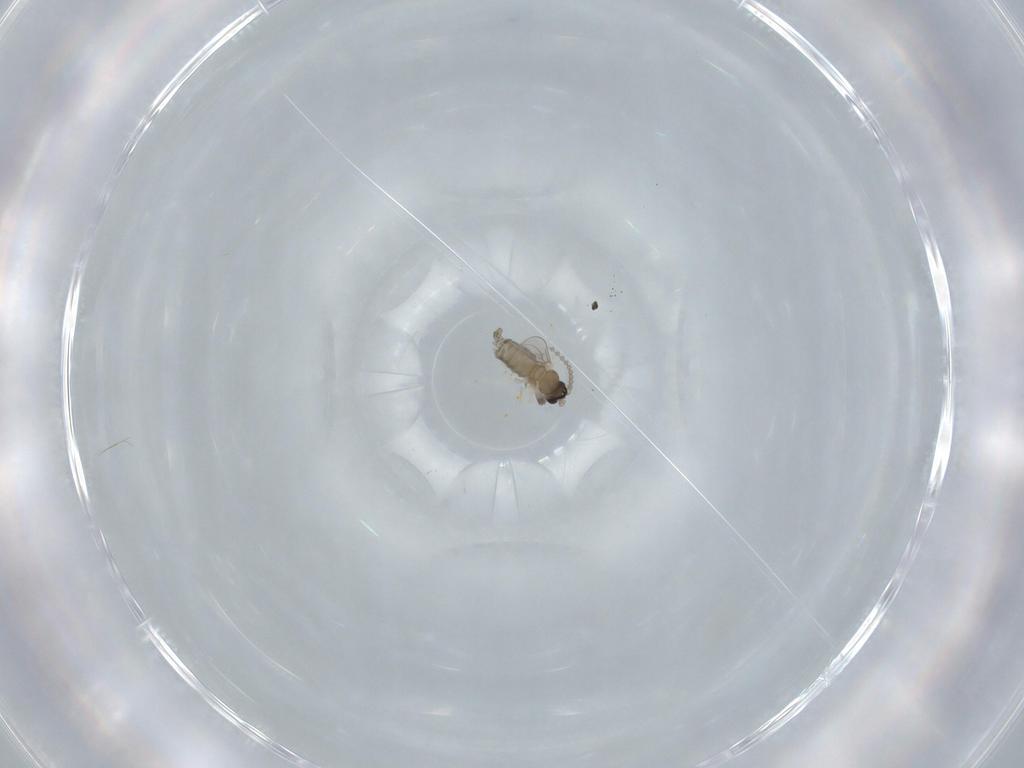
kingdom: Animalia
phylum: Arthropoda
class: Insecta
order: Diptera
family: Cecidomyiidae
